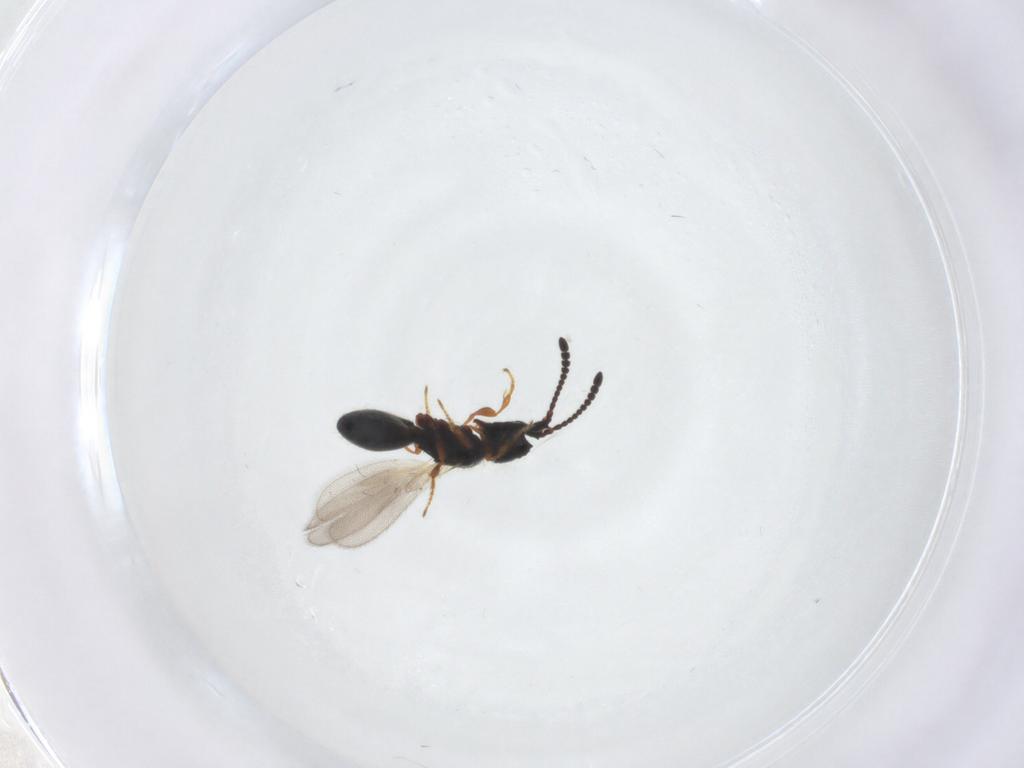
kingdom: Animalia
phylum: Arthropoda
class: Insecta
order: Hymenoptera
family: Diapriidae
